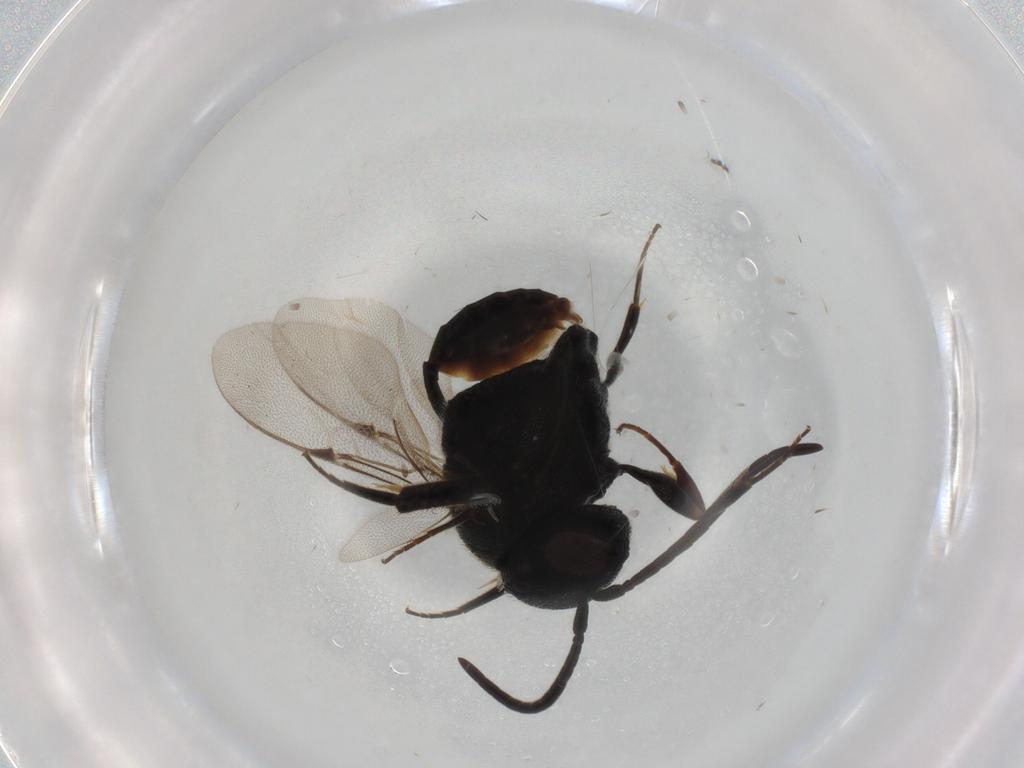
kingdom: Animalia
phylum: Arthropoda
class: Insecta
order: Hymenoptera
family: Evaniidae
